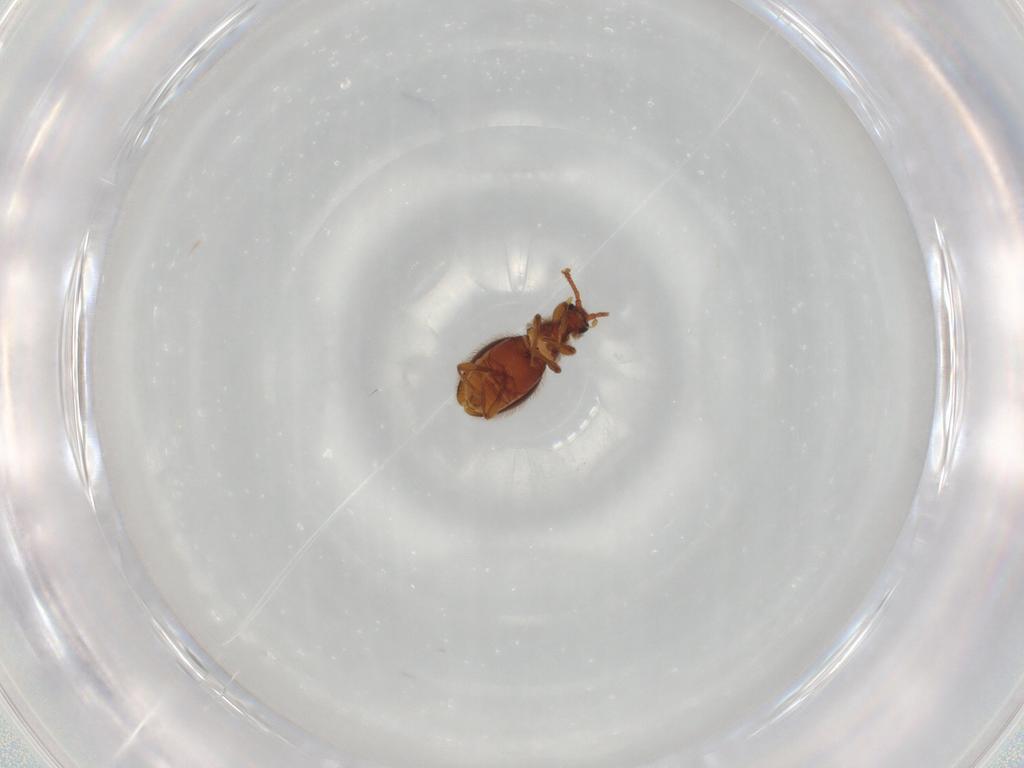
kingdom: Animalia
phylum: Arthropoda
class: Insecta
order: Coleoptera
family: Staphylinidae
